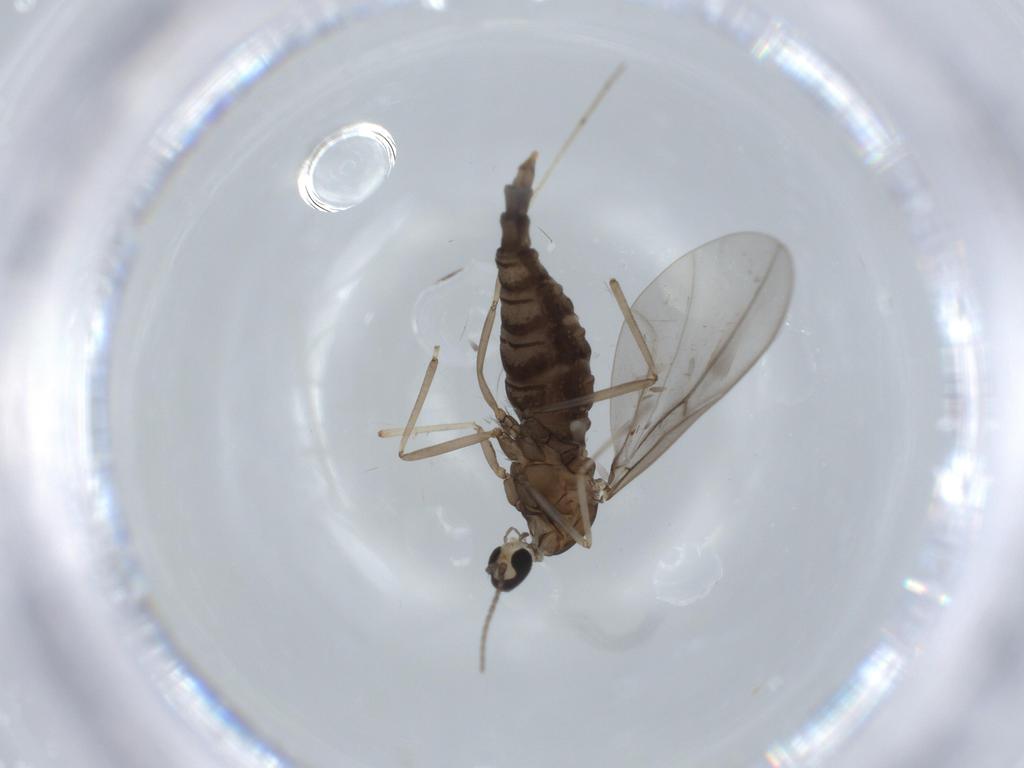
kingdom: Animalia
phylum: Arthropoda
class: Insecta
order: Diptera
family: Cecidomyiidae
